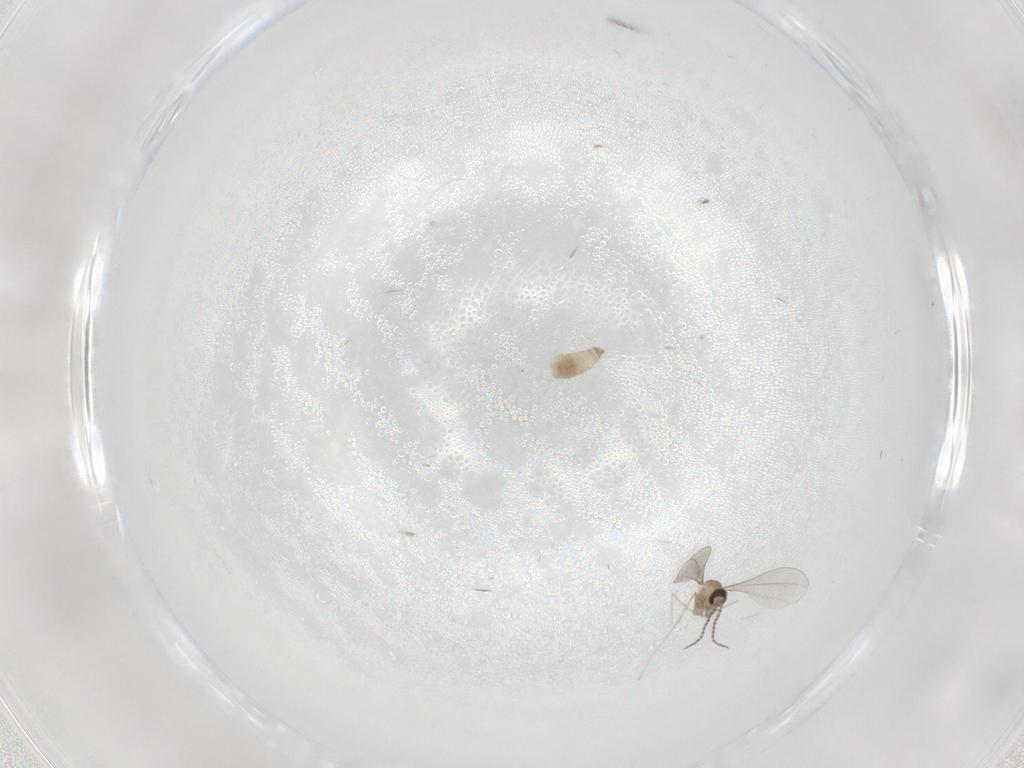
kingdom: Animalia
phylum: Arthropoda
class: Insecta
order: Diptera
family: Cecidomyiidae
